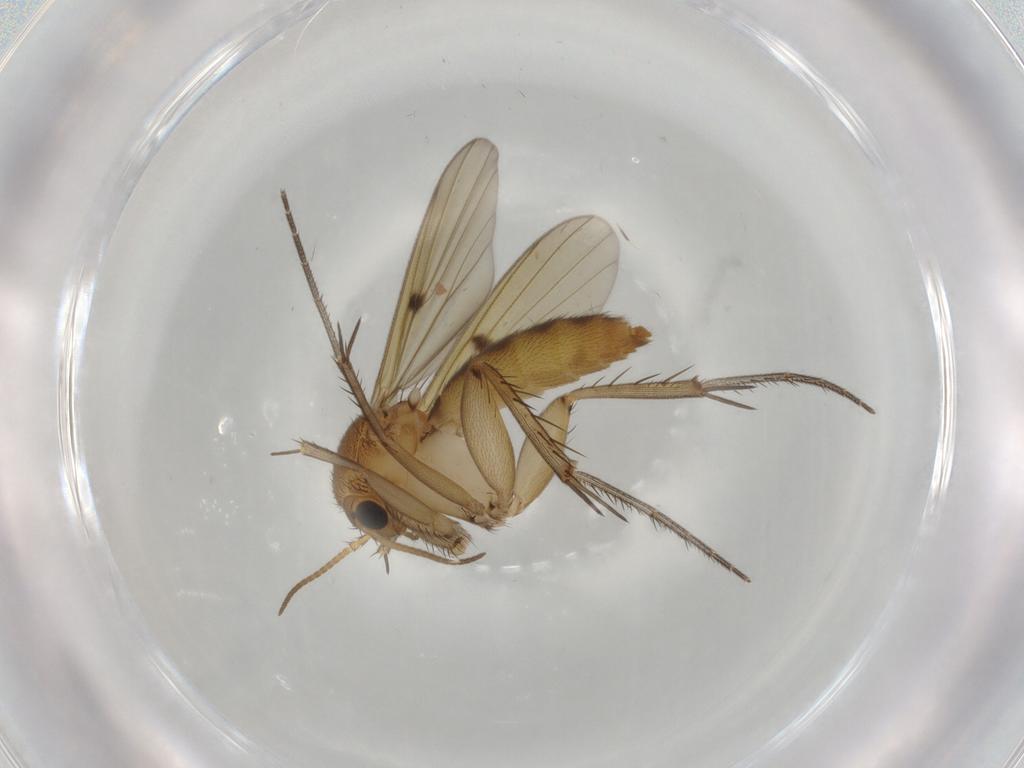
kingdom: Animalia
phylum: Arthropoda
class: Insecta
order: Diptera
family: Mycetophilidae
